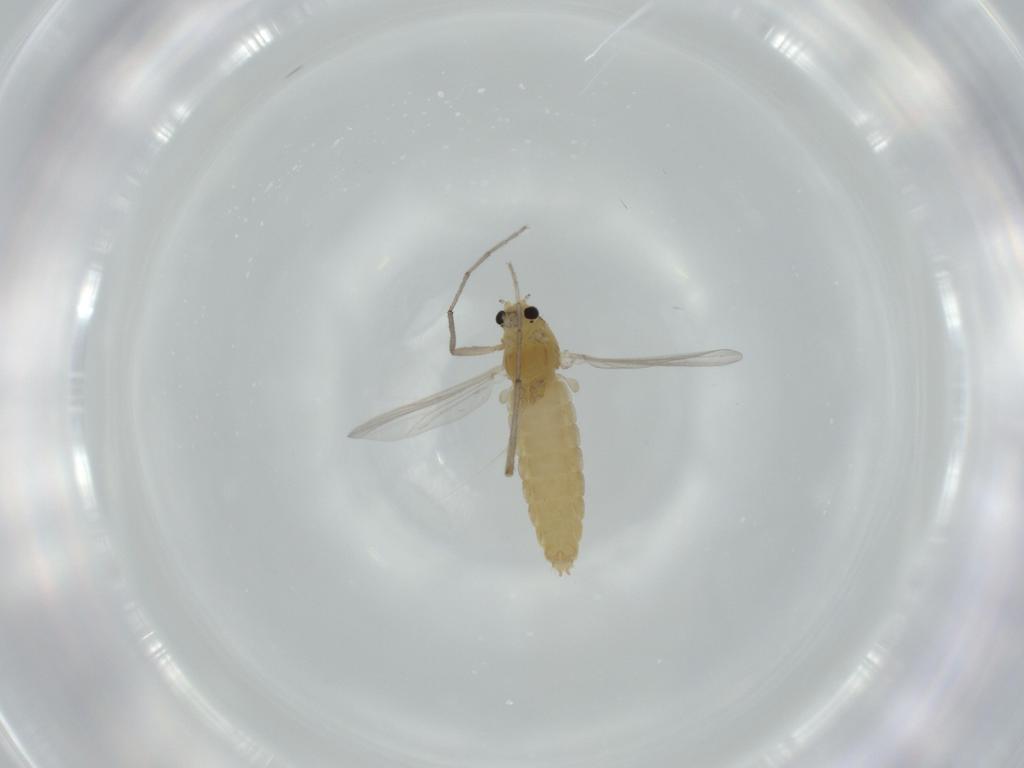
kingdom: Animalia
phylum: Arthropoda
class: Insecta
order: Diptera
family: Chironomidae
